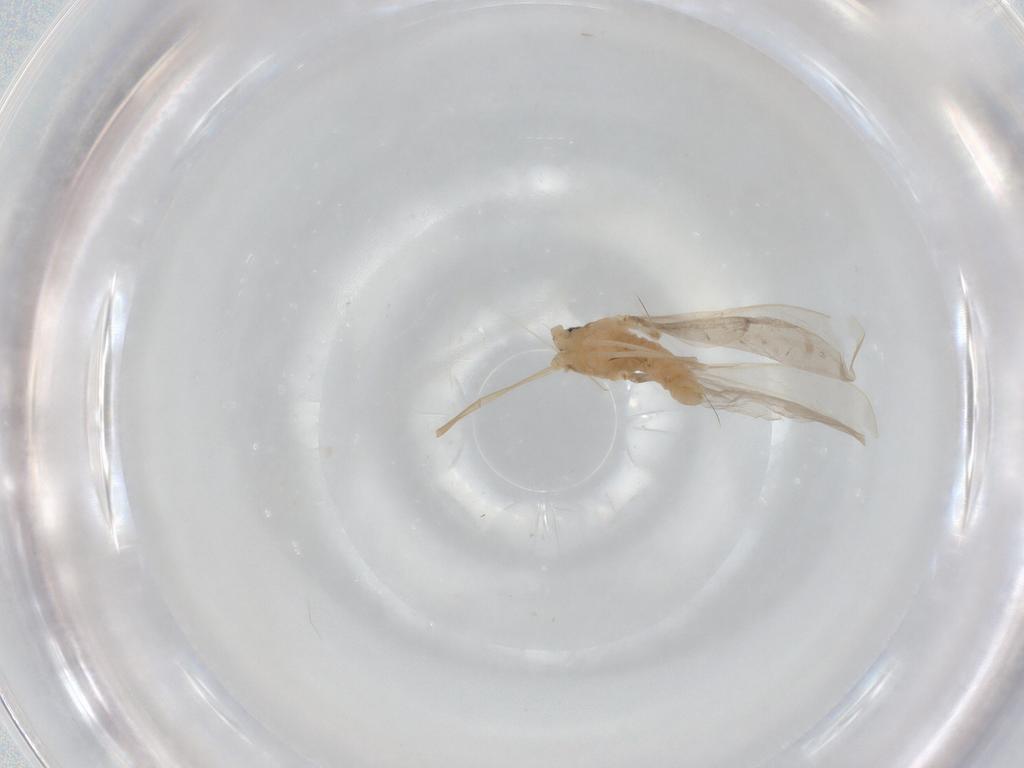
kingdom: Animalia
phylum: Arthropoda
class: Insecta
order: Diptera
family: Cecidomyiidae
